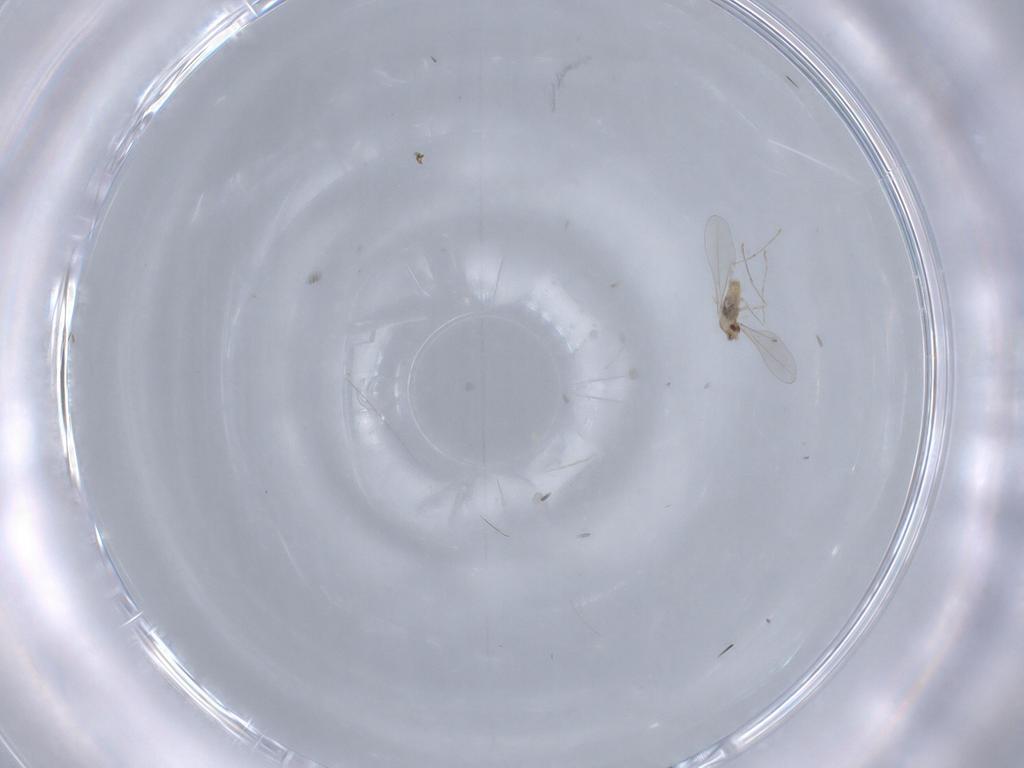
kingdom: Animalia
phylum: Arthropoda
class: Insecta
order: Diptera
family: Cecidomyiidae
